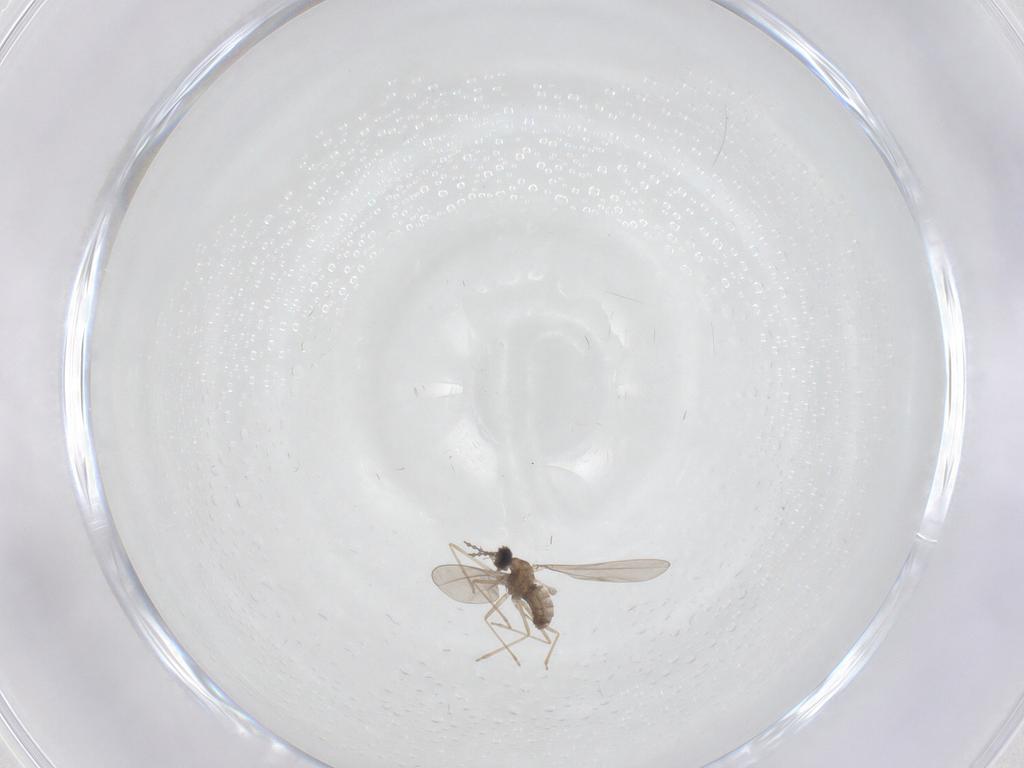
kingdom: Animalia
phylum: Arthropoda
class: Insecta
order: Diptera
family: Cecidomyiidae
